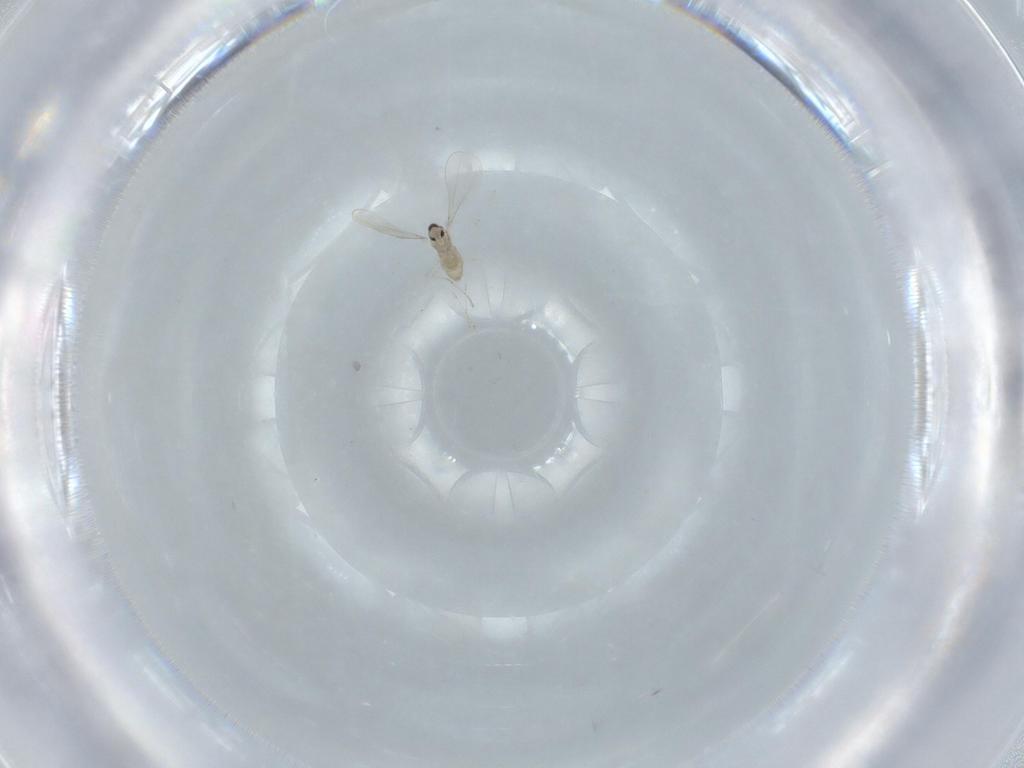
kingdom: Animalia
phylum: Arthropoda
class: Insecta
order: Diptera
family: Cecidomyiidae
